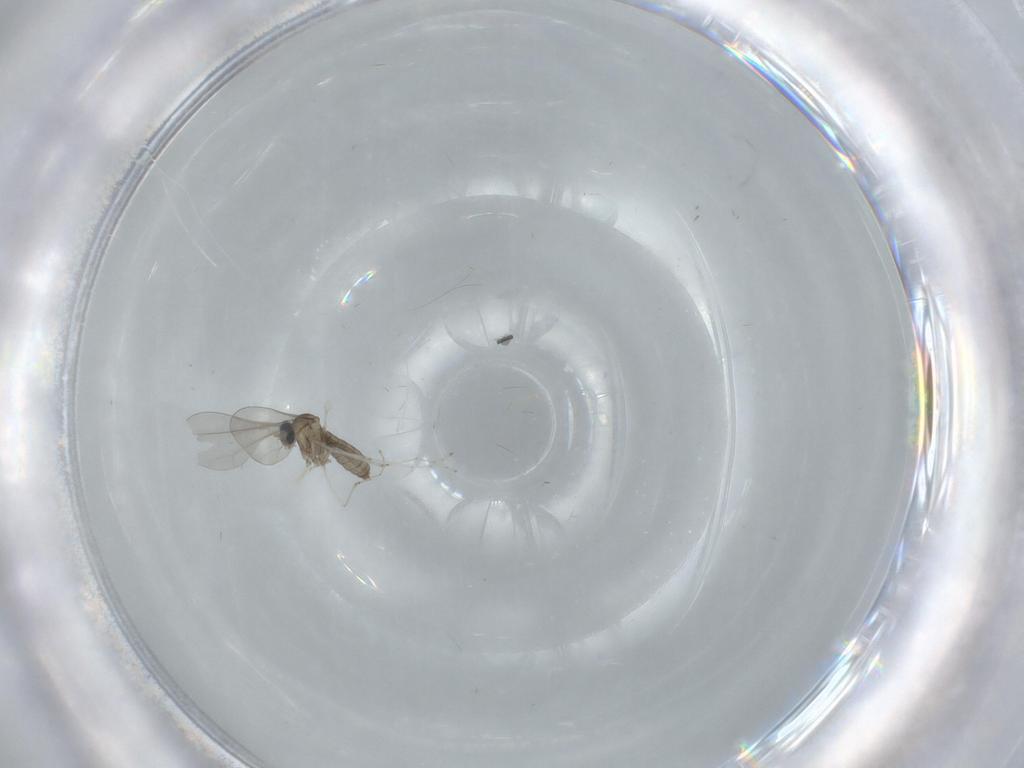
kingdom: Animalia
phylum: Arthropoda
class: Insecta
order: Diptera
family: Cecidomyiidae
